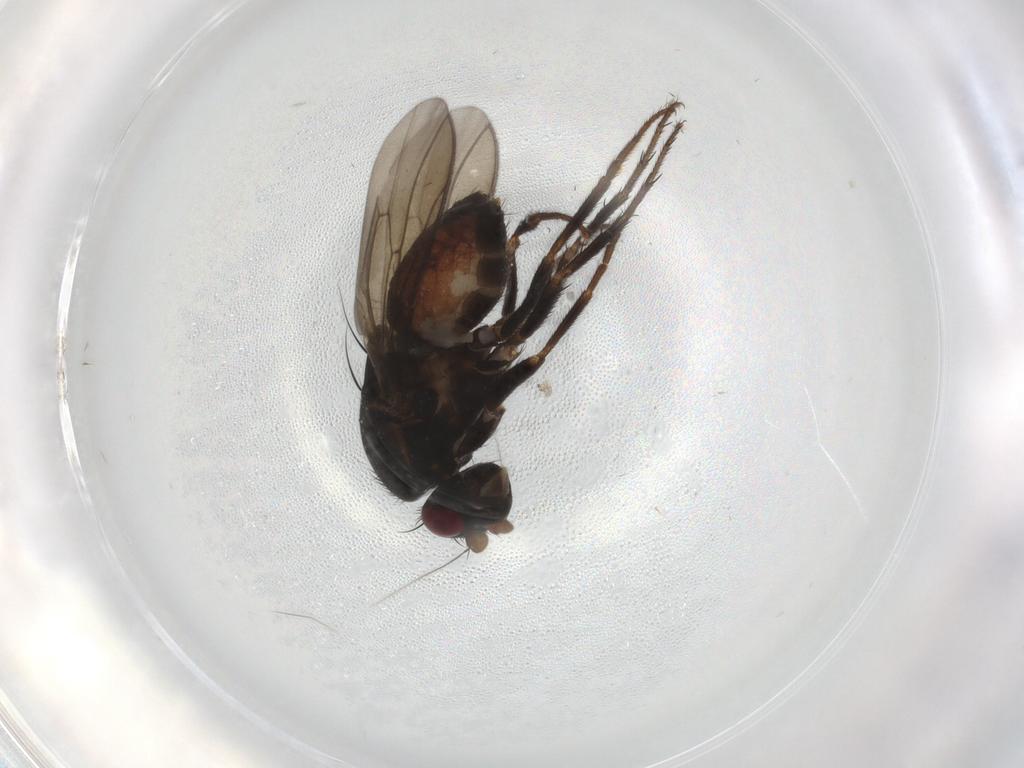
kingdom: Animalia
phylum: Arthropoda
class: Insecta
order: Diptera
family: Sphaeroceridae
